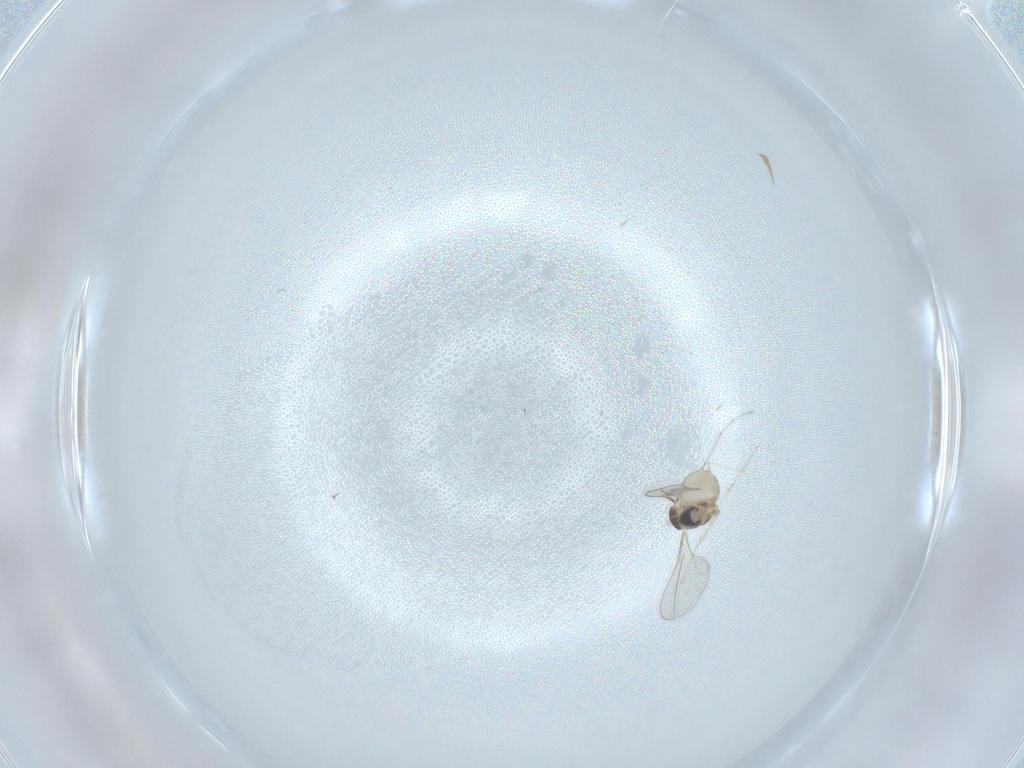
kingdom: Animalia
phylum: Arthropoda
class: Insecta
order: Diptera
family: Cecidomyiidae
